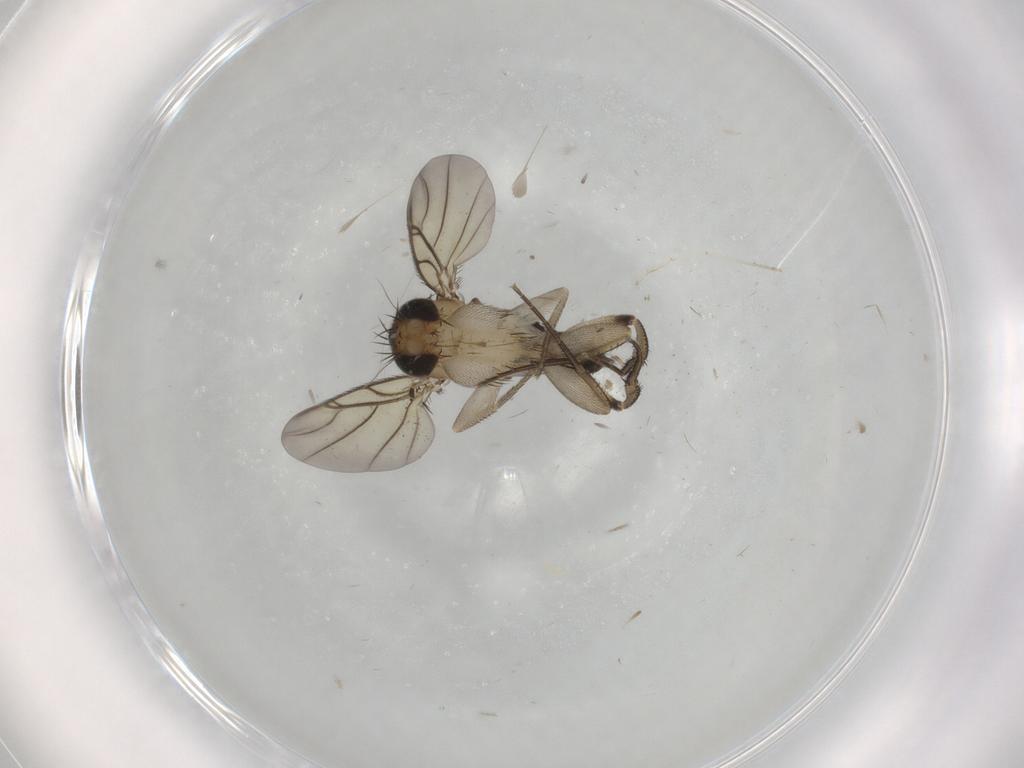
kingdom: Animalia
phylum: Arthropoda
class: Insecta
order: Diptera
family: Phoridae
